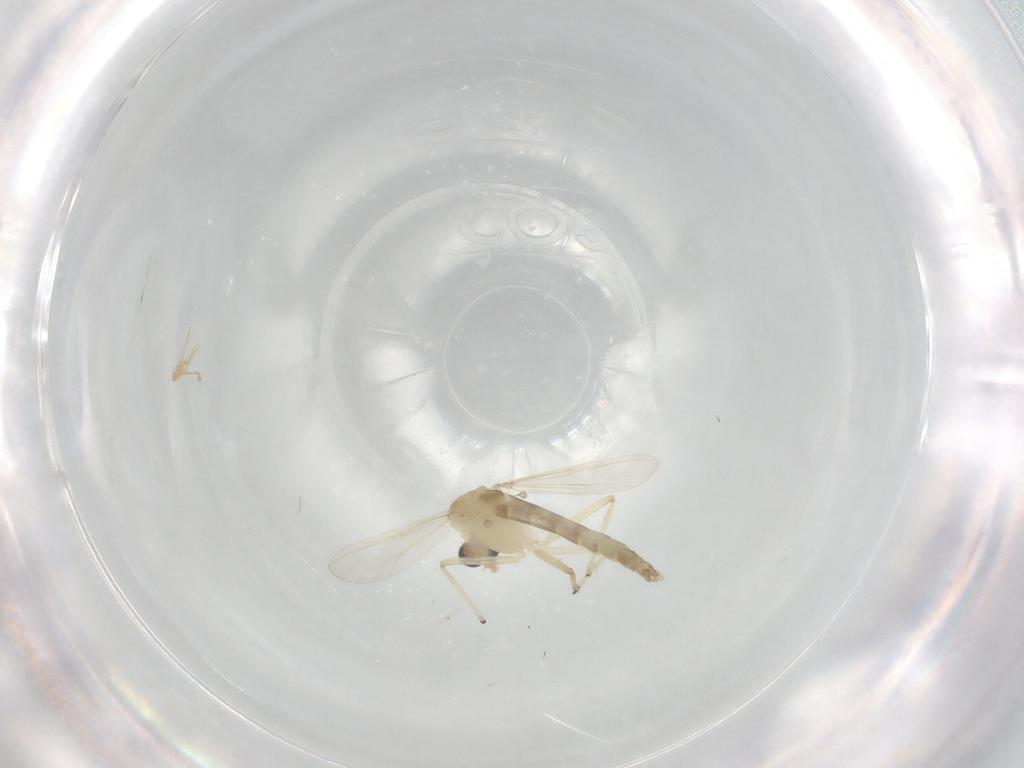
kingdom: Animalia
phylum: Arthropoda
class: Insecta
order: Diptera
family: Chironomidae
